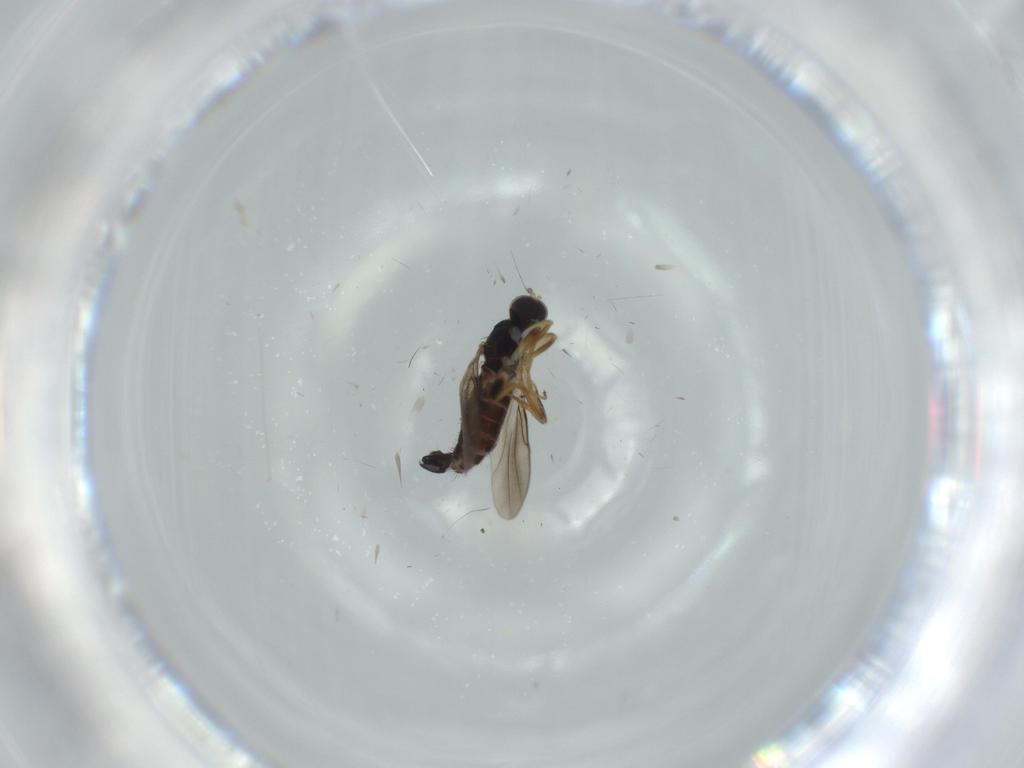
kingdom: Animalia
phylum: Arthropoda
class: Insecta
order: Diptera
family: Hybotidae
